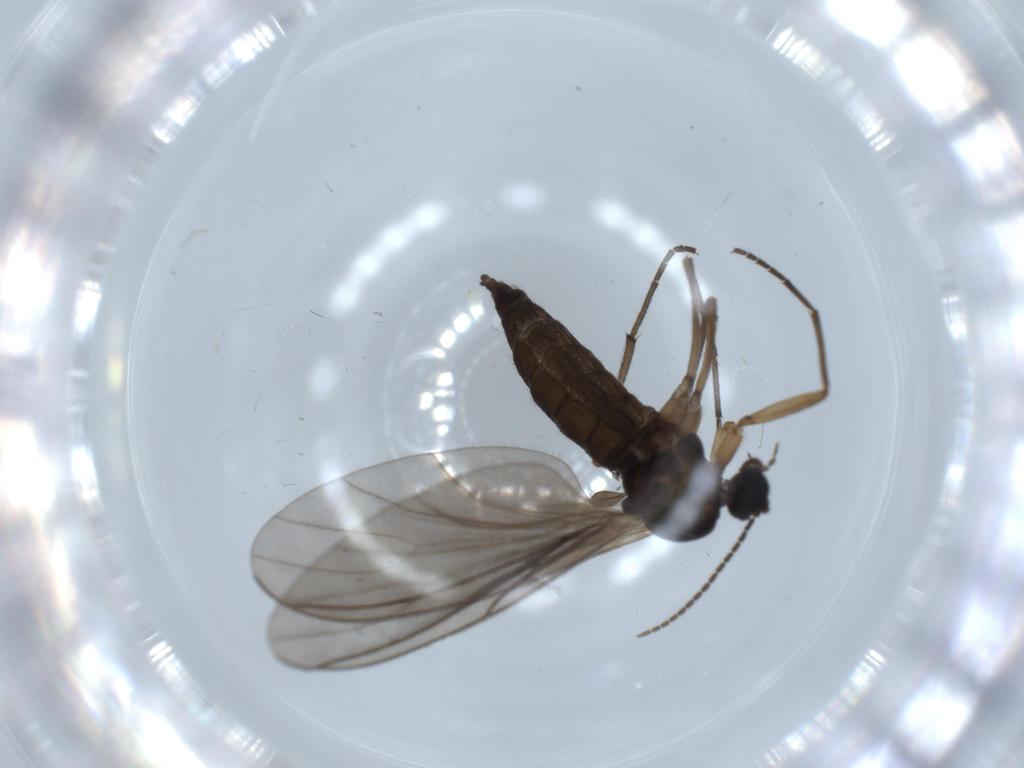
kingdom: Animalia
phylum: Arthropoda
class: Insecta
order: Diptera
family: Sciaridae
